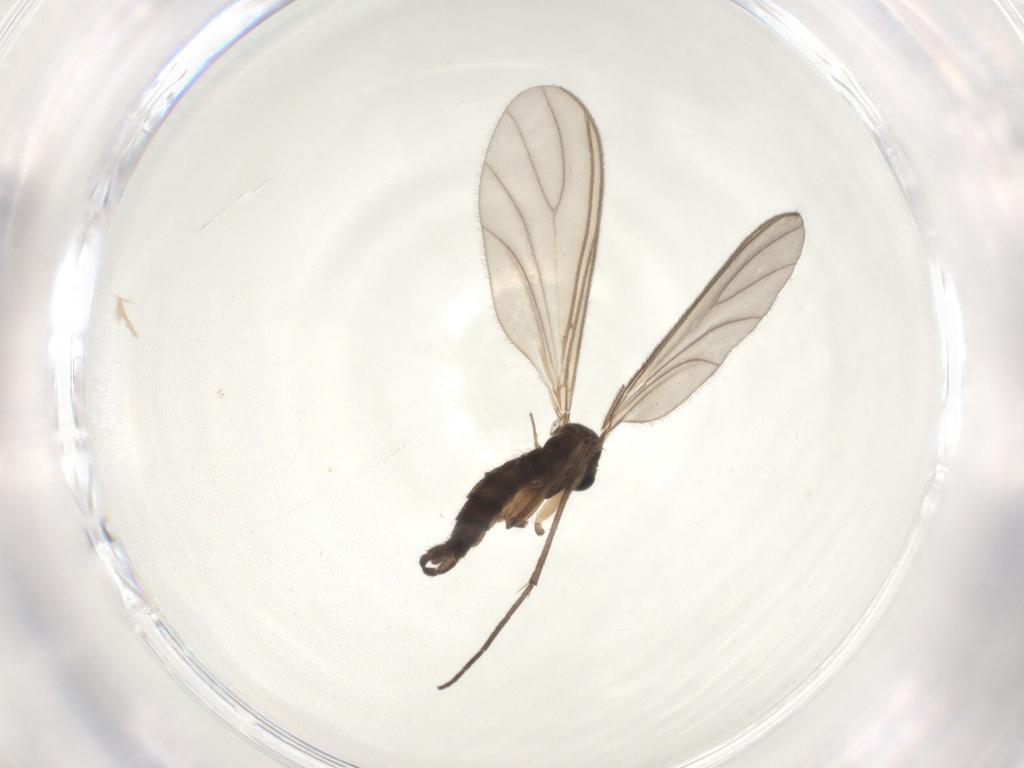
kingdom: Animalia
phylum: Arthropoda
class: Insecta
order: Diptera
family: Sciaridae
